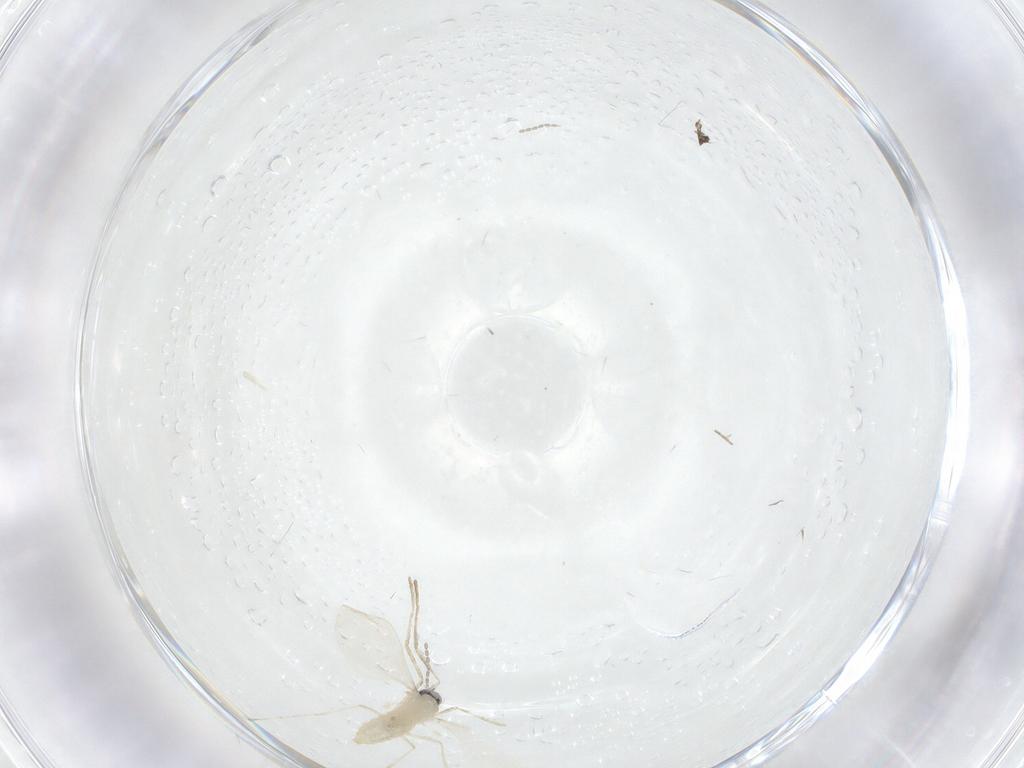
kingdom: Animalia
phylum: Arthropoda
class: Insecta
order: Diptera
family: Phoridae
